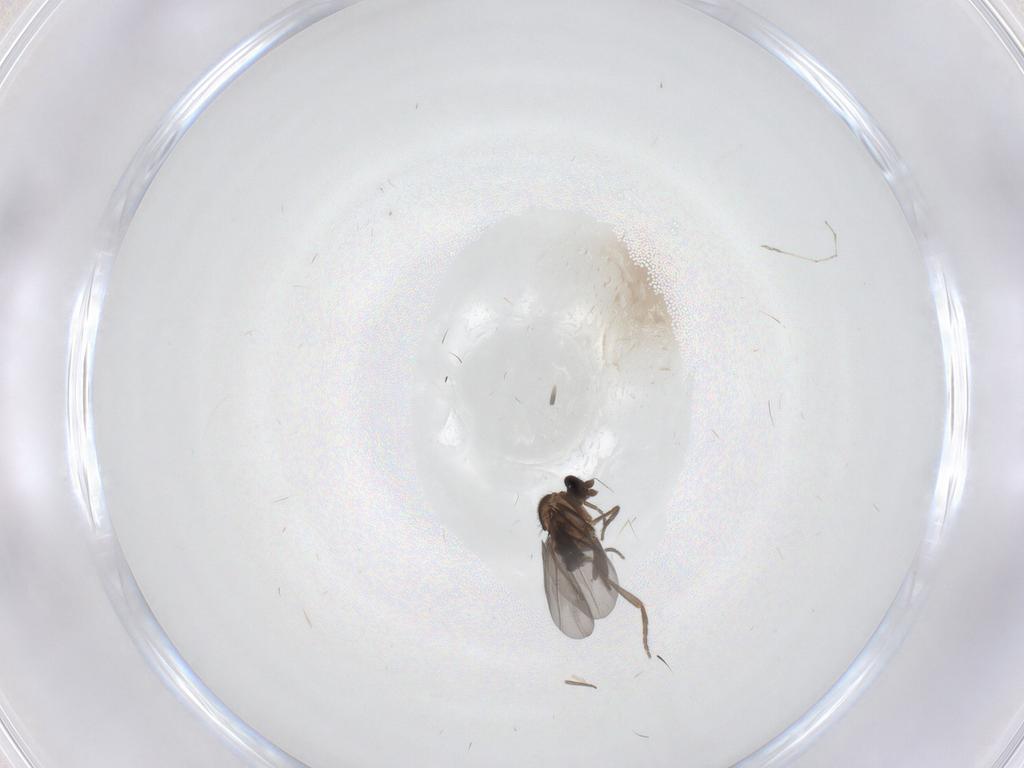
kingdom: Animalia
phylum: Arthropoda
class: Insecta
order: Diptera
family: Phoridae
